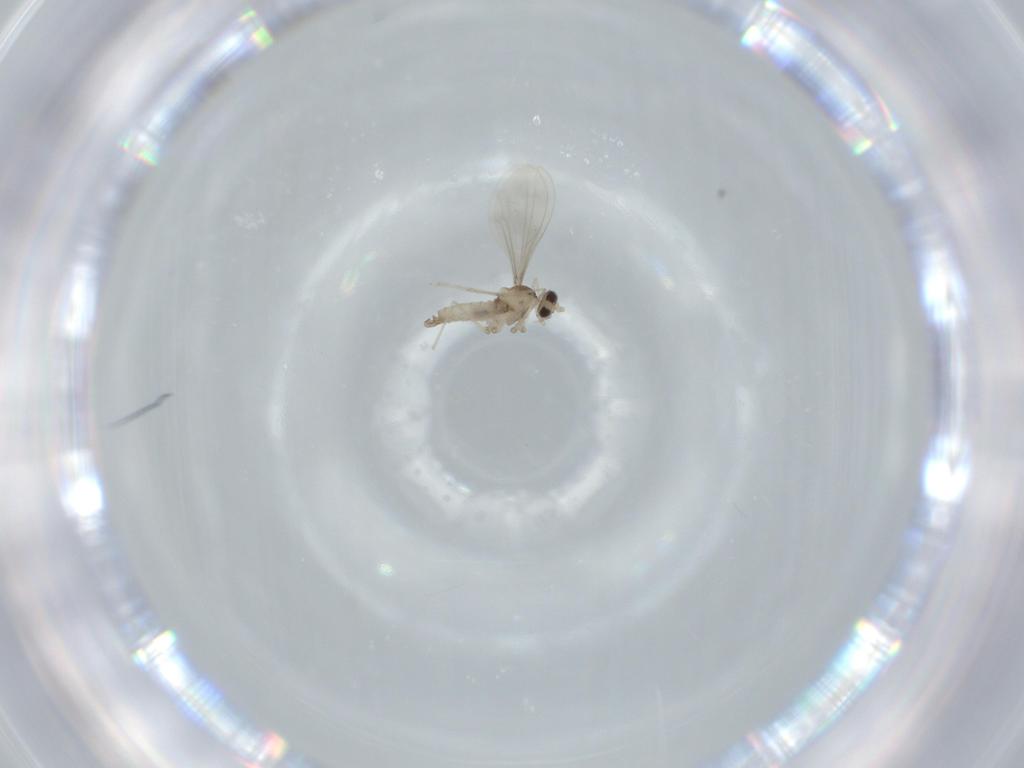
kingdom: Animalia
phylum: Arthropoda
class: Insecta
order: Diptera
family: Cecidomyiidae
